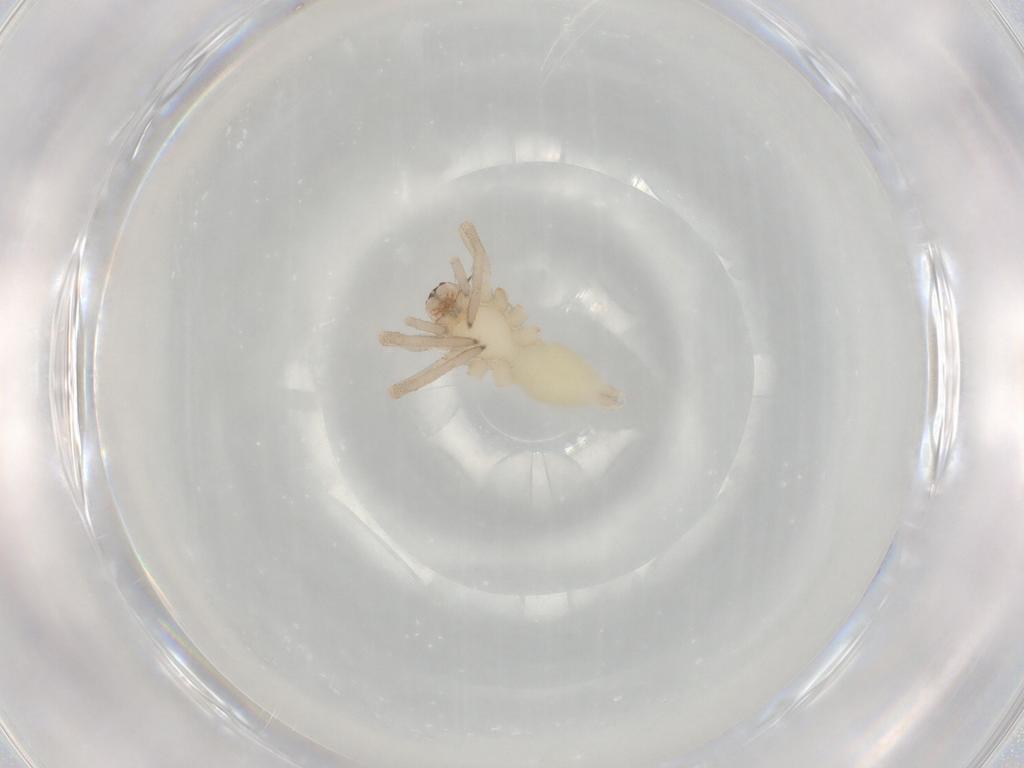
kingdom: Animalia
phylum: Arthropoda
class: Arachnida
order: Araneae
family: Clubionidae
